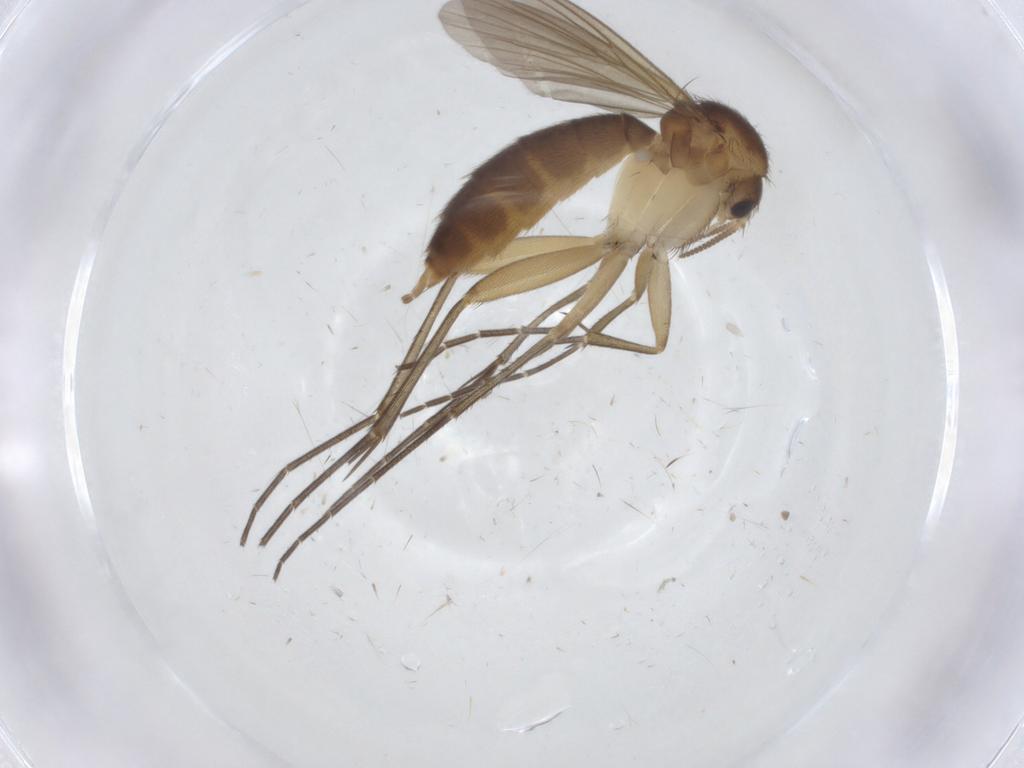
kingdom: Animalia
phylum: Arthropoda
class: Insecta
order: Diptera
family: Mycetophilidae
